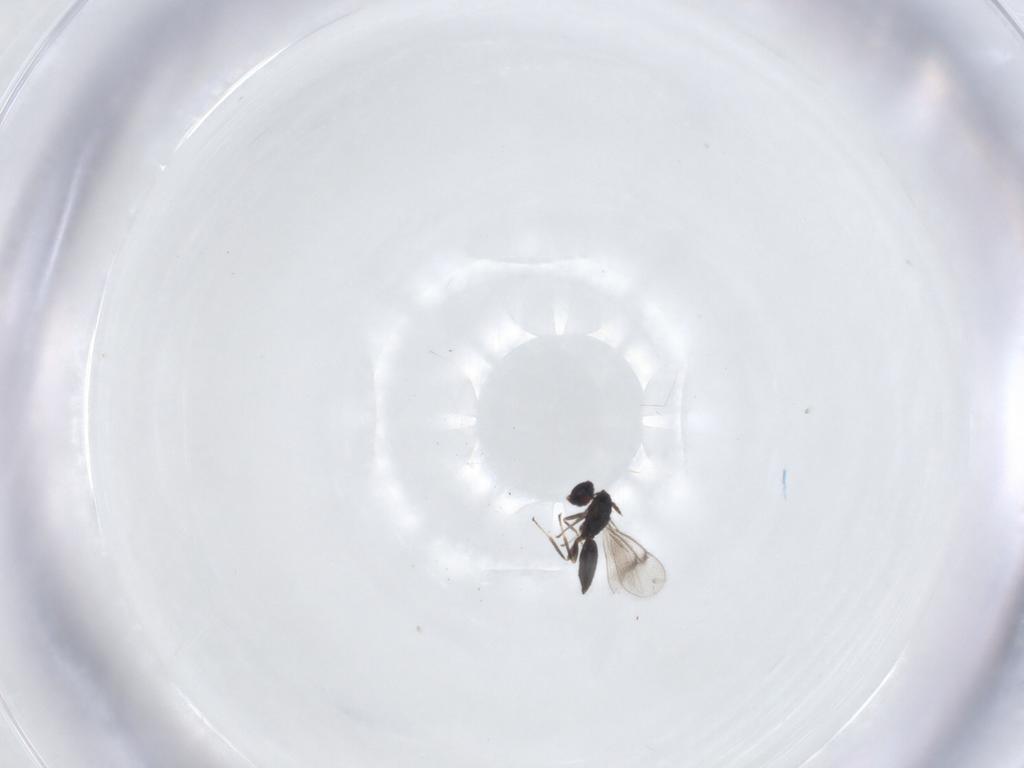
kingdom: Animalia
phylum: Arthropoda
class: Insecta
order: Hymenoptera
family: Eulophidae
